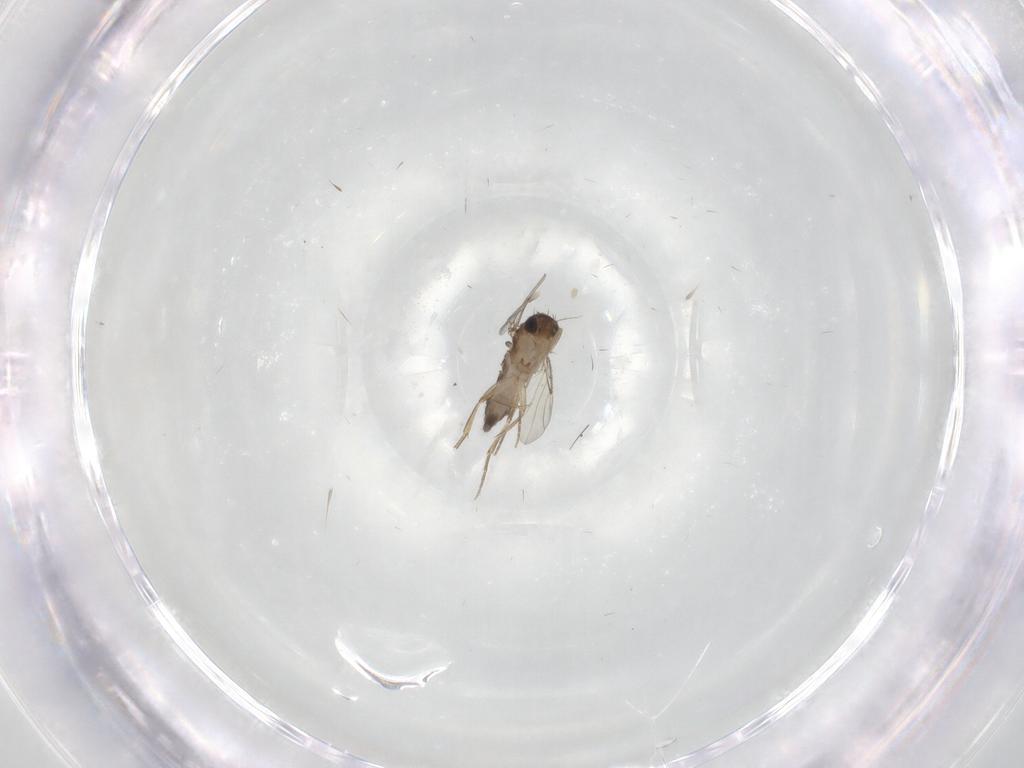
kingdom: Animalia
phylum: Arthropoda
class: Insecta
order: Diptera
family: Phoridae
